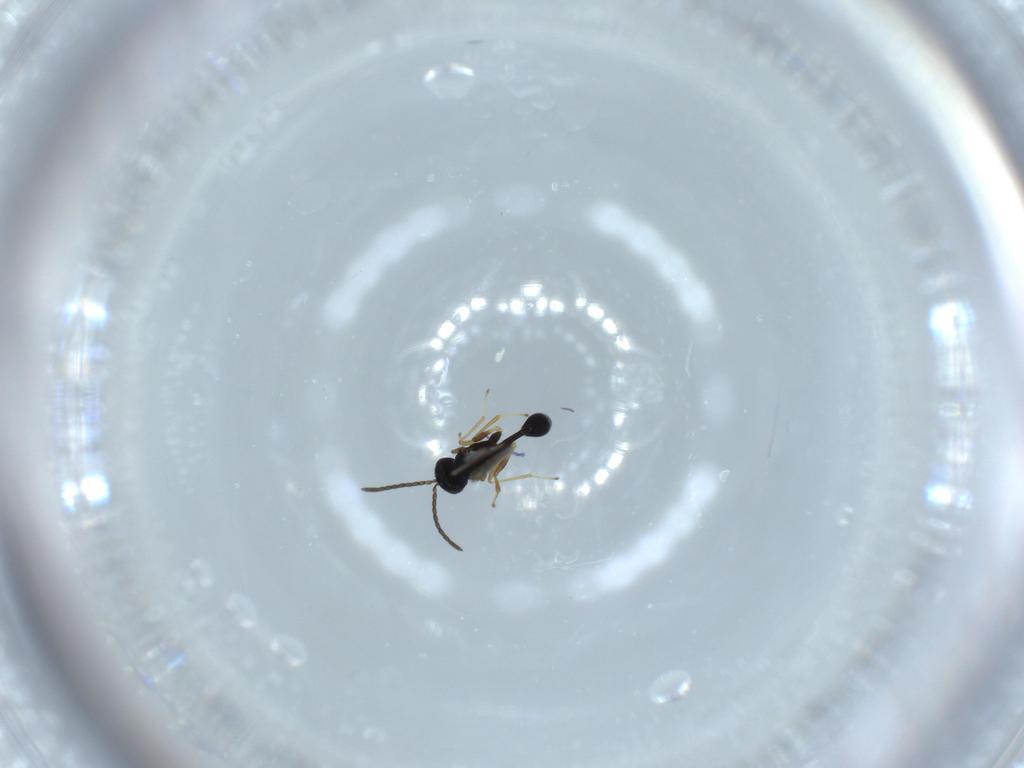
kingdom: Animalia
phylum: Arthropoda
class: Insecta
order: Hymenoptera
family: Diparidae
